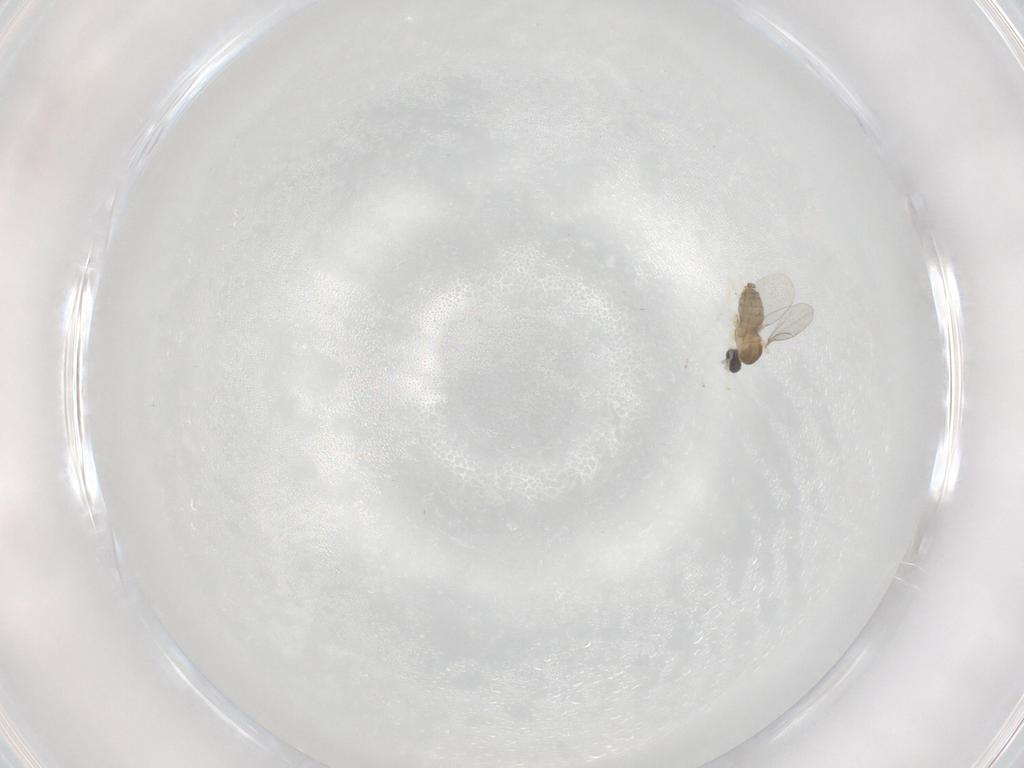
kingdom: Animalia
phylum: Arthropoda
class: Insecta
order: Diptera
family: Cecidomyiidae
